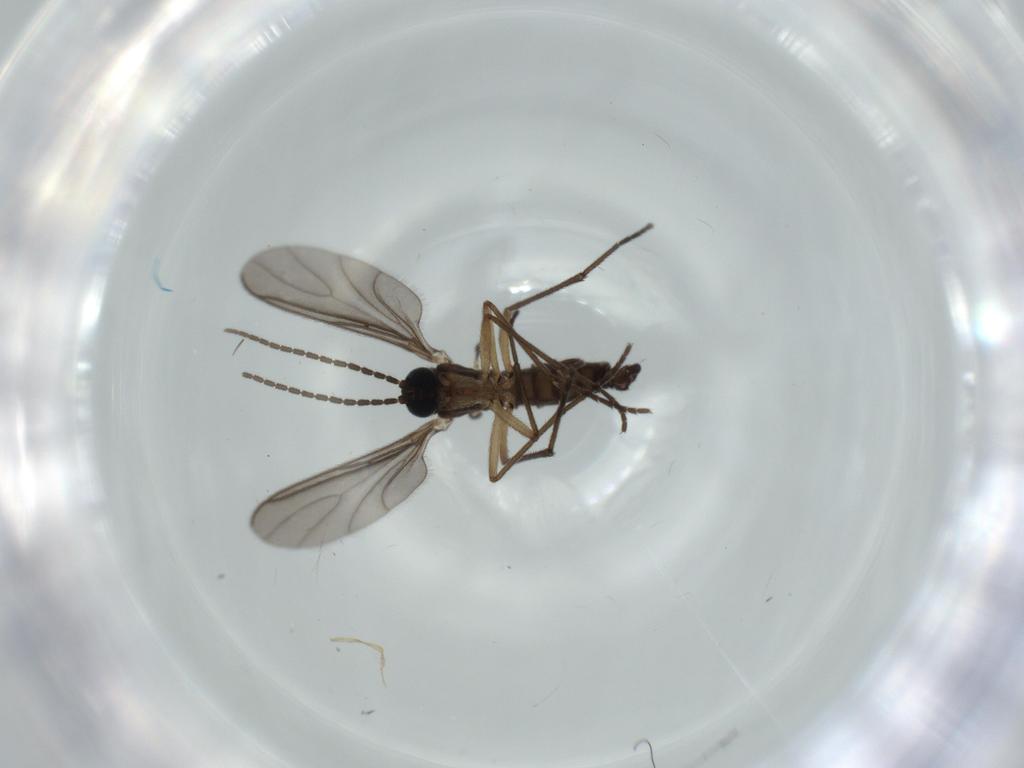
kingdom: Animalia
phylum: Arthropoda
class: Insecta
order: Diptera
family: Sciaridae
